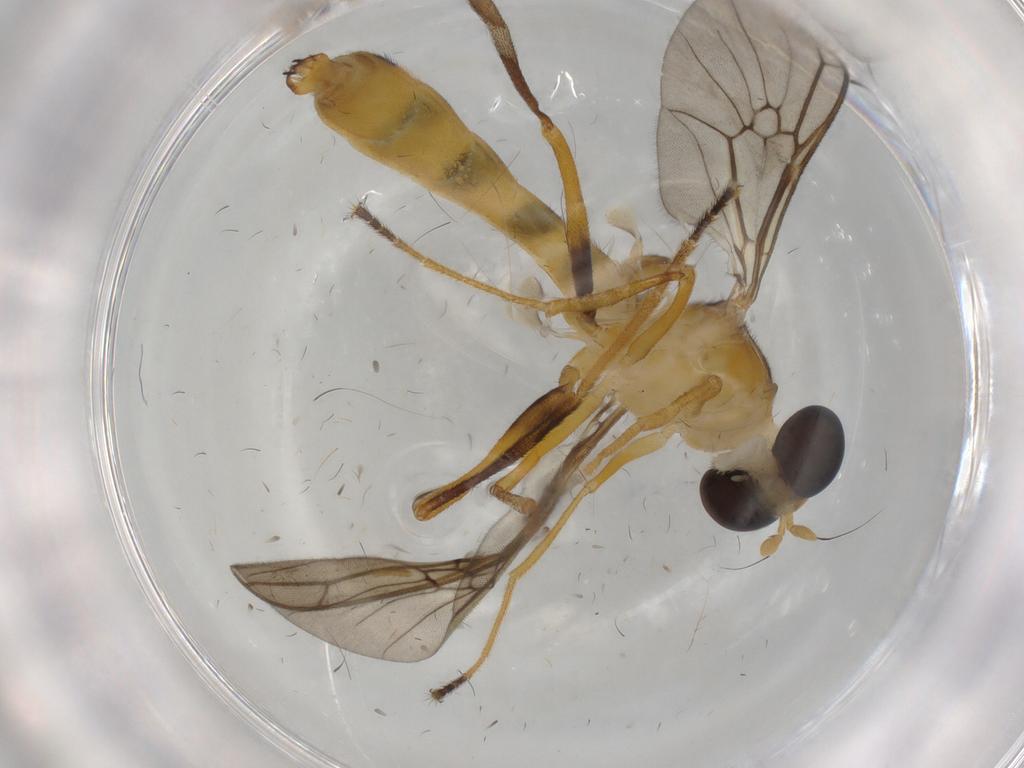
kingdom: Animalia
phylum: Arthropoda
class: Insecta
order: Diptera
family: Dolichopodidae
